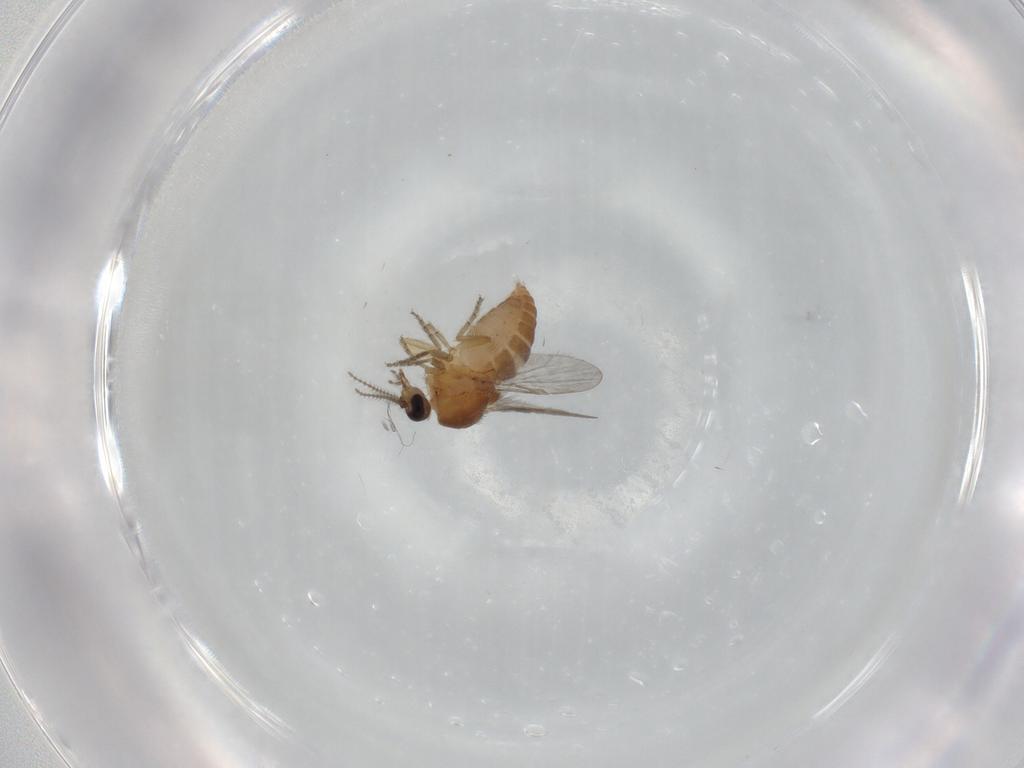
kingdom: Animalia
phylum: Arthropoda
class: Insecta
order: Diptera
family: Ceratopogonidae
